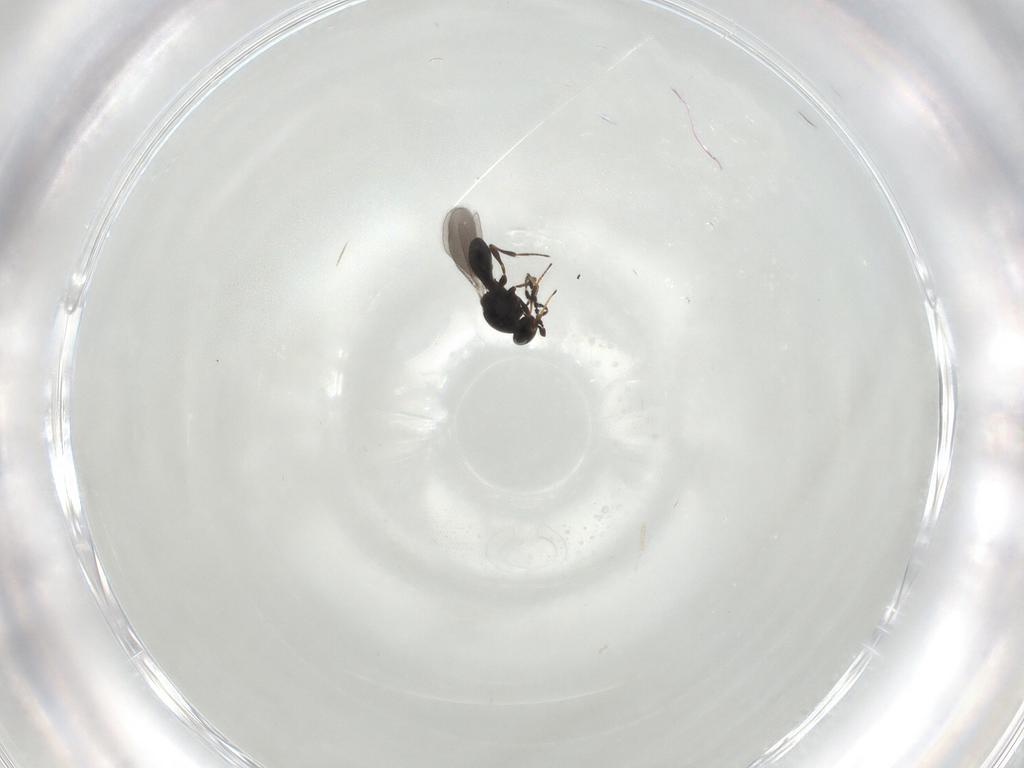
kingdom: Animalia
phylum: Arthropoda
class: Insecta
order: Hymenoptera
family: Platygastridae
